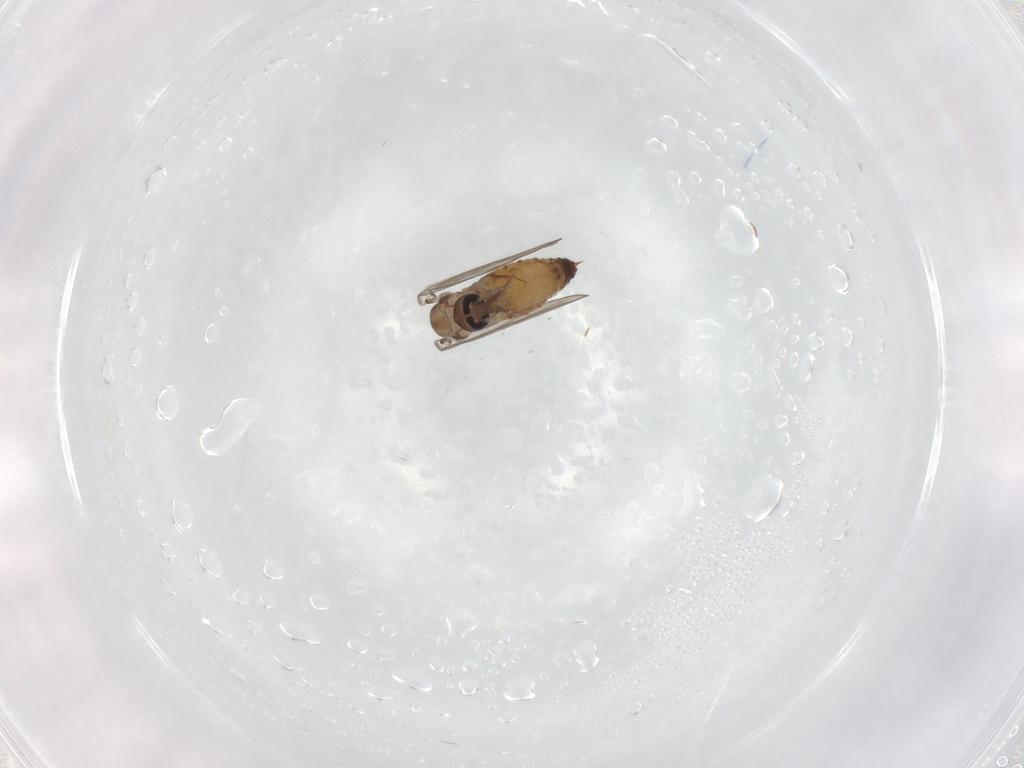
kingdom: Animalia
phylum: Arthropoda
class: Insecta
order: Diptera
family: Psychodidae
